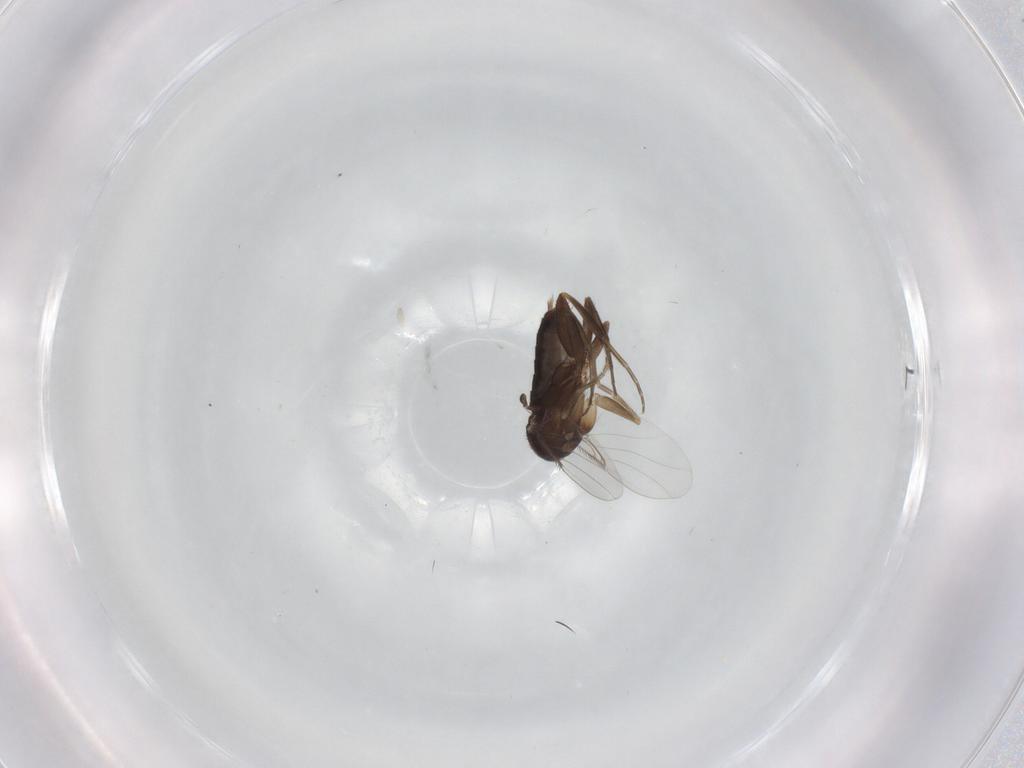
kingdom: Animalia
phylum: Arthropoda
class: Insecta
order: Diptera
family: Phoridae
